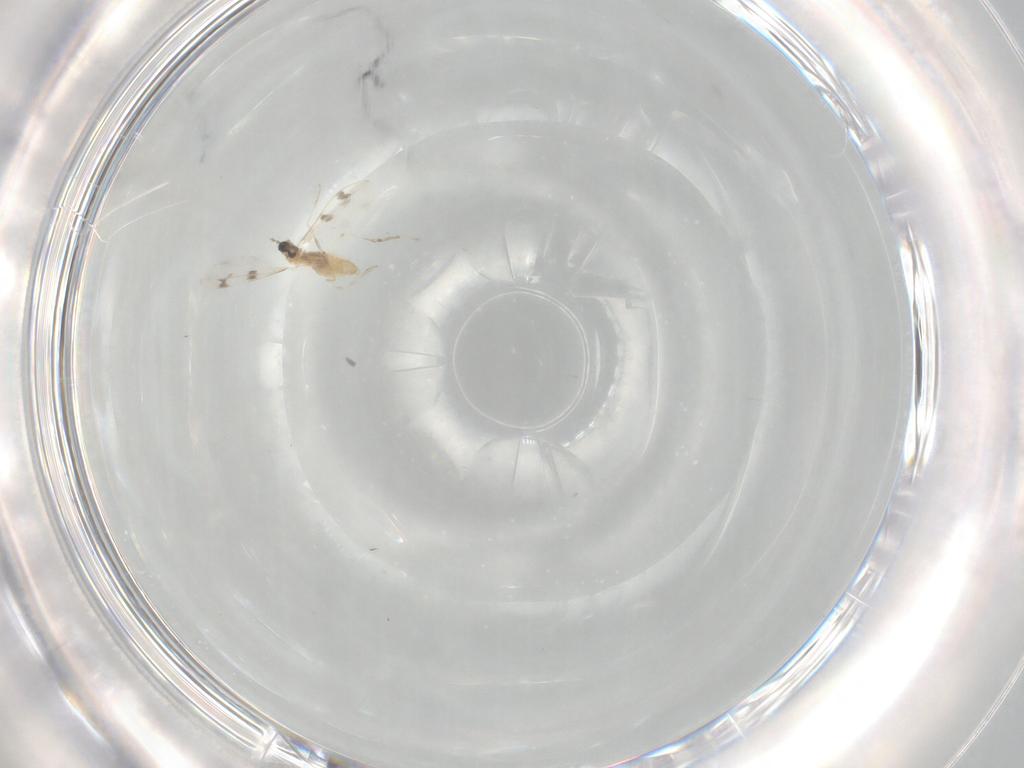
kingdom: Animalia
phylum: Arthropoda
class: Insecta
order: Diptera
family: Cecidomyiidae
